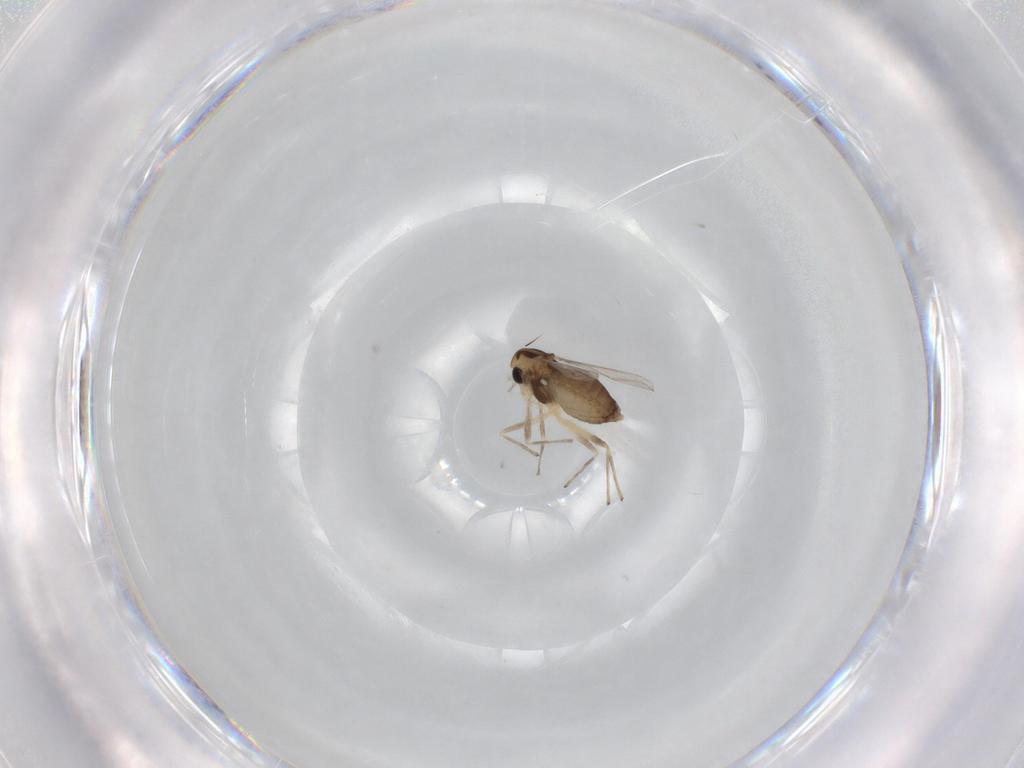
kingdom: Animalia
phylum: Arthropoda
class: Insecta
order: Diptera
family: Chironomidae
